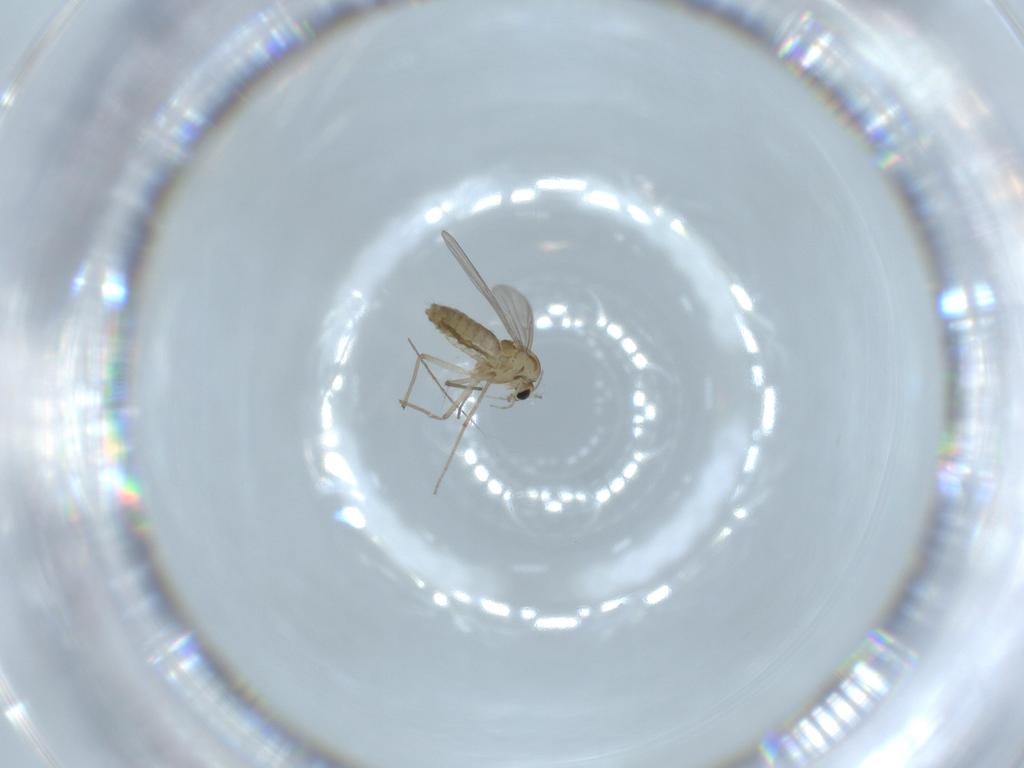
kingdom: Animalia
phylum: Arthropoda
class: Insecta
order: Diptera
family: Chironomidae
